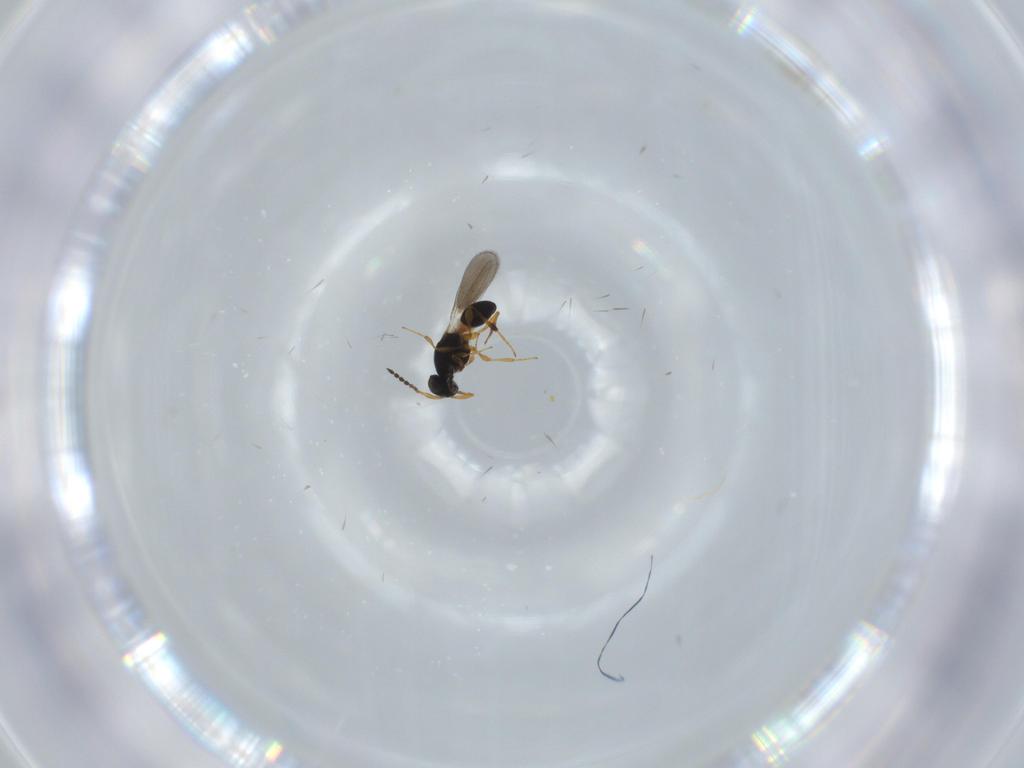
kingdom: Animalia
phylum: Arthropoda
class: Insecta
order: Hymenoptera
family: Platygastridae
